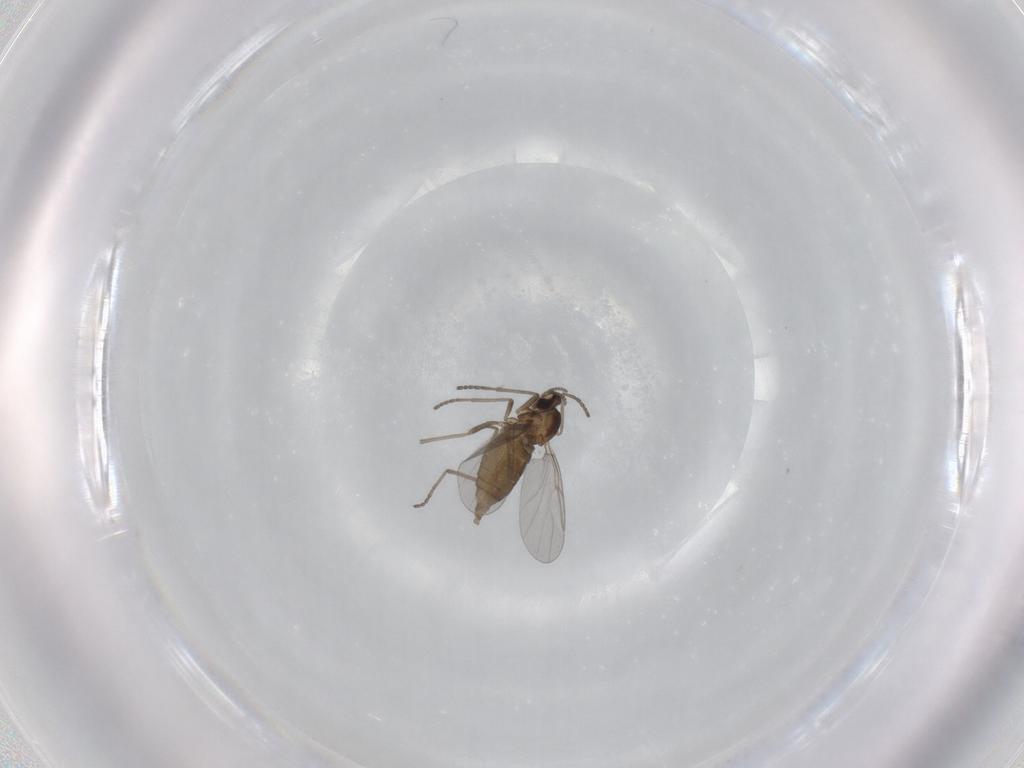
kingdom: Animalia
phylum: Arthropoda
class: Insecta
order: Diptera
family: Cecidomyiidae
